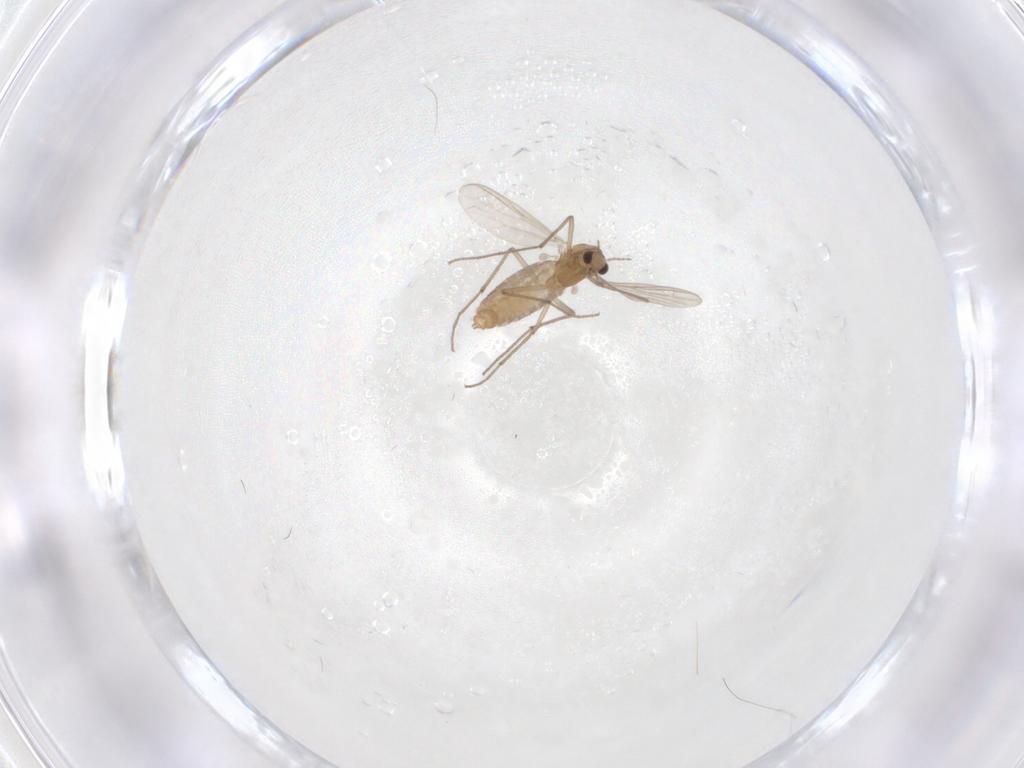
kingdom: Animalia
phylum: Arthropoda
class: Insecta
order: Diptera
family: Chironomidae
